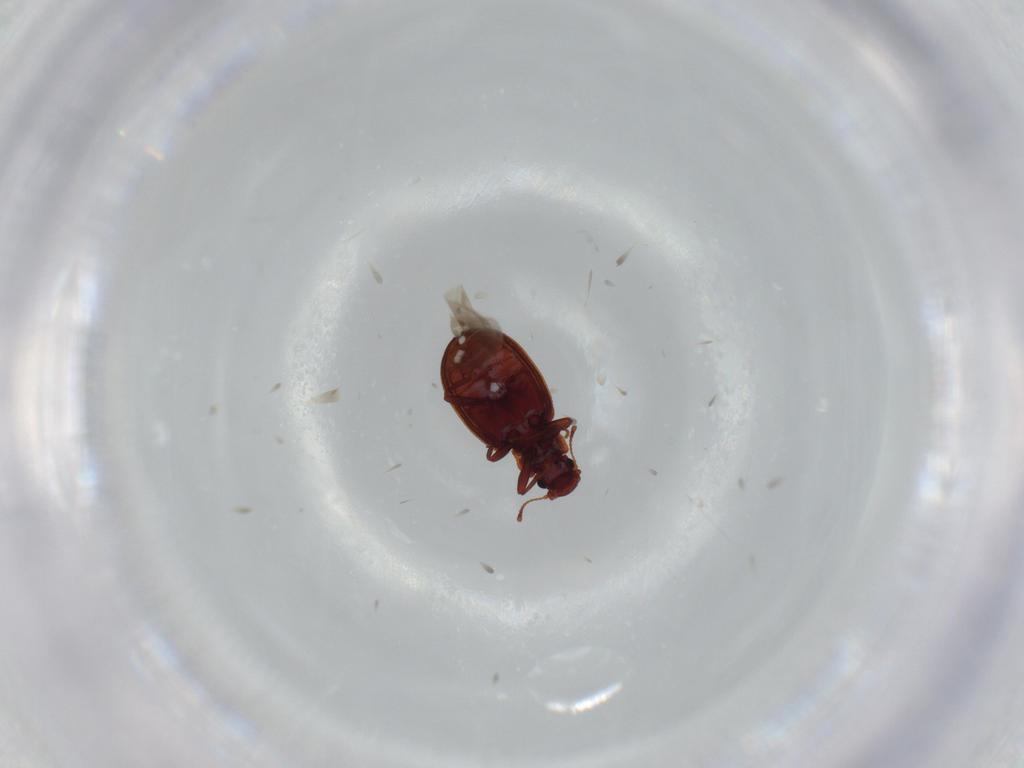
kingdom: Animalia
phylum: Arthropoda
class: Insecta
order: Coleoptera
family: Latridiidae
